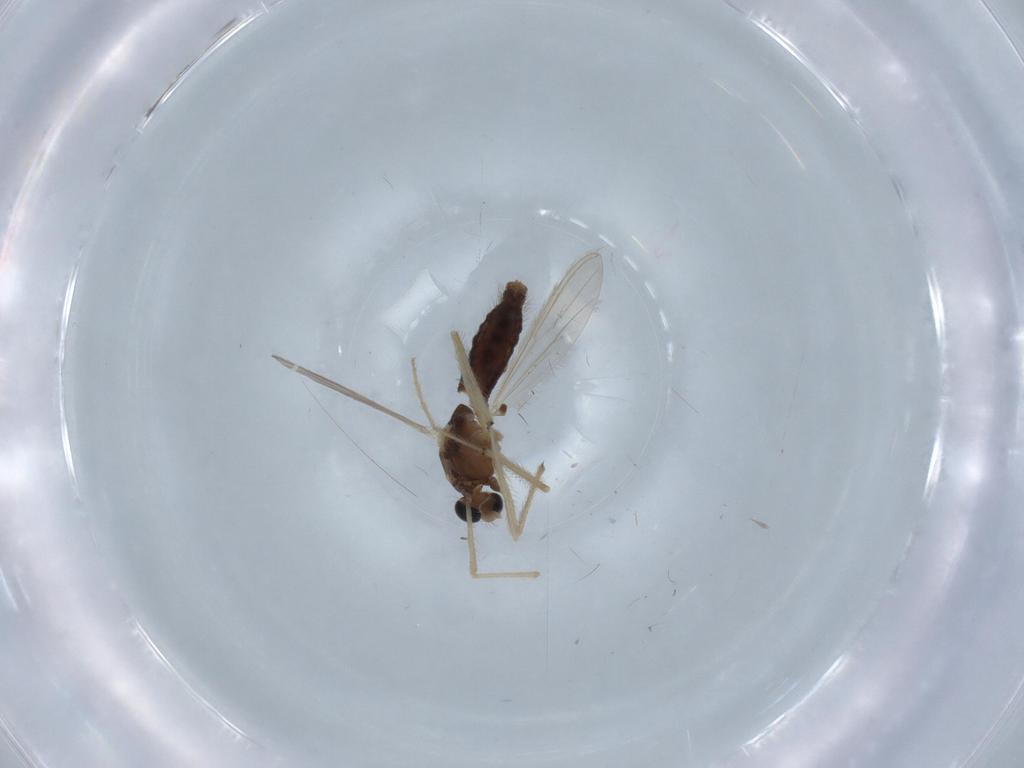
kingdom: Animalia
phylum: Arthropoda
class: Insecta
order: Diptera
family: Chironomidae
